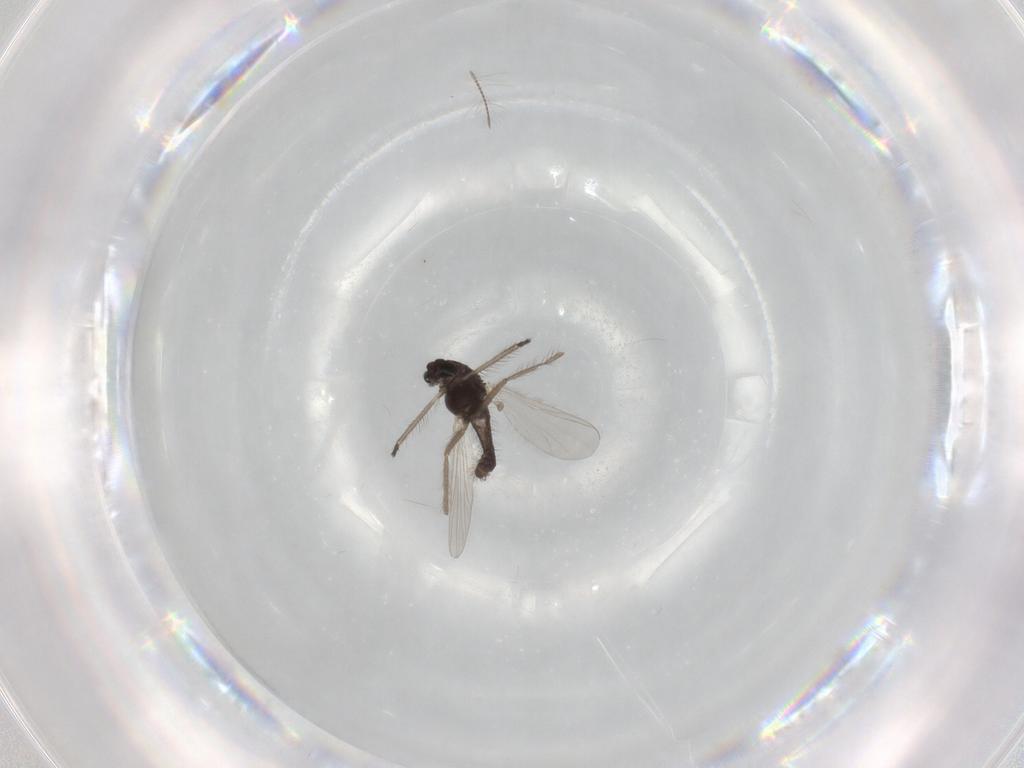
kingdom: Animalia
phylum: Arthropoda
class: Insecta
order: Diptera
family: Chironomidae
